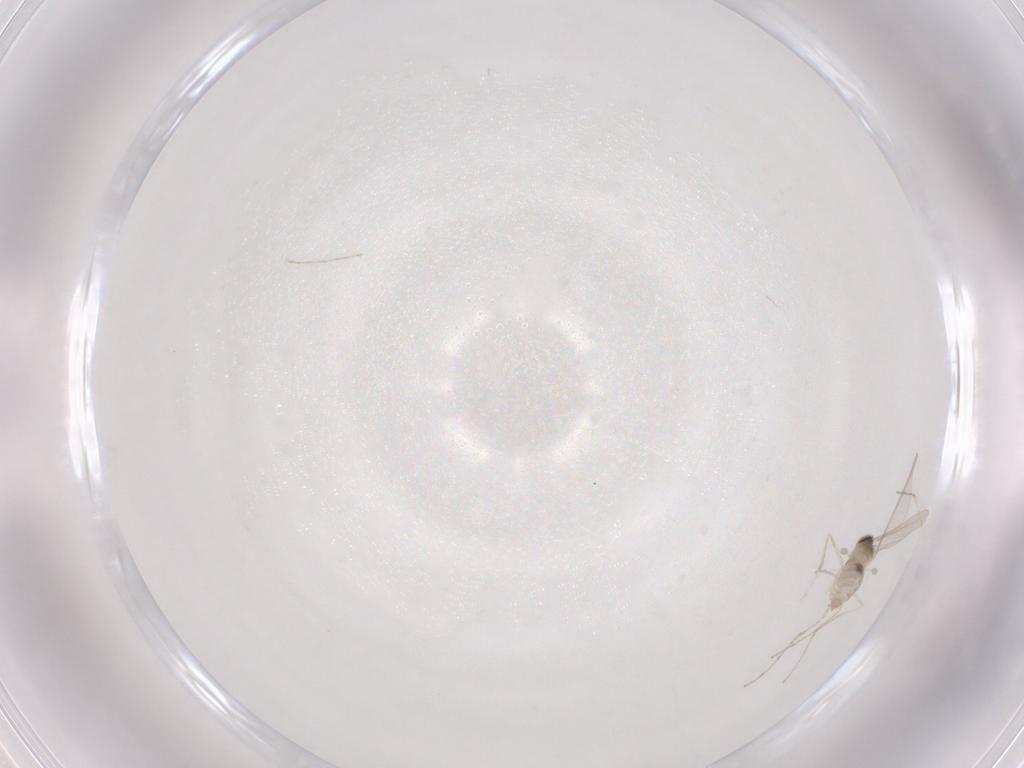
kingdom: Animalia
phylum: Arthropoda
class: Insecta
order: Diptera
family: Cecidomyiidae
